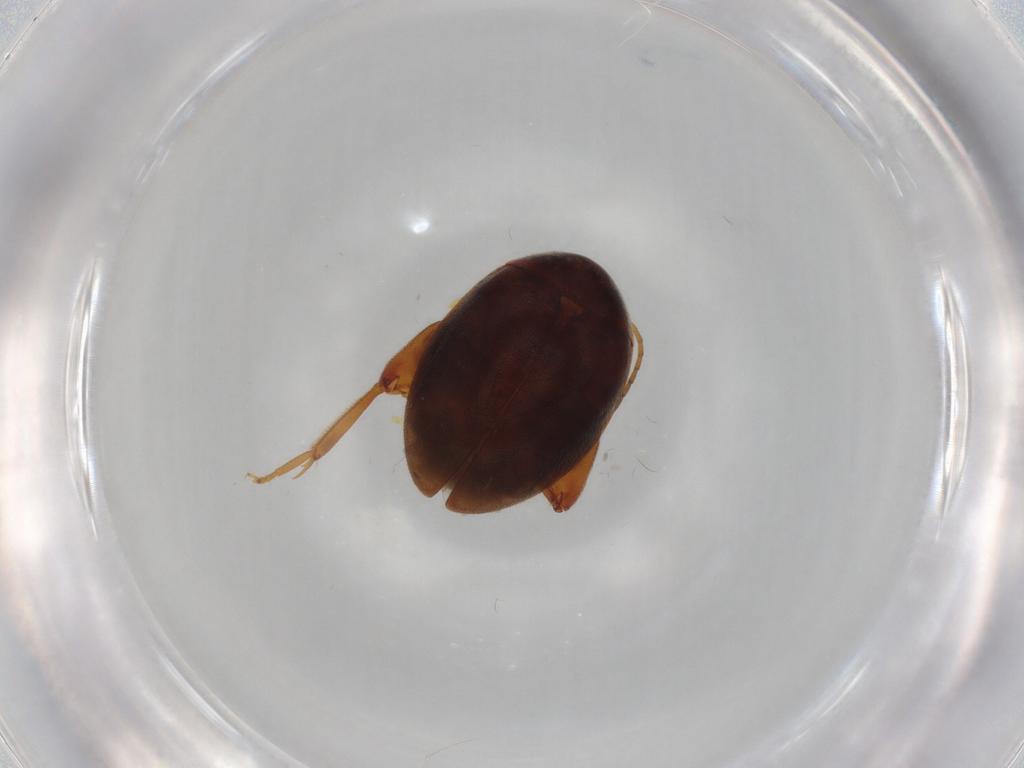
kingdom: Animalia
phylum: Arthropoda
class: Insecta
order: Coleoptera
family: Scirtidae
